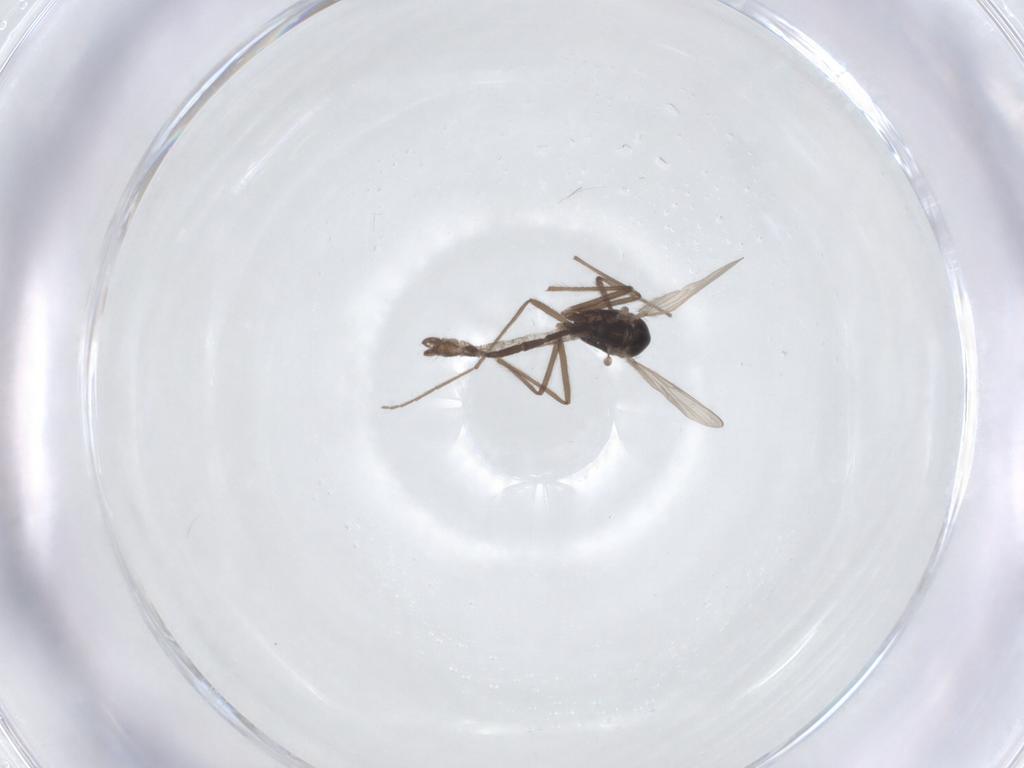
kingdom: Animalia
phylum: Arthropoda
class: Insecta
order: Diptera
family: Chironomidae
